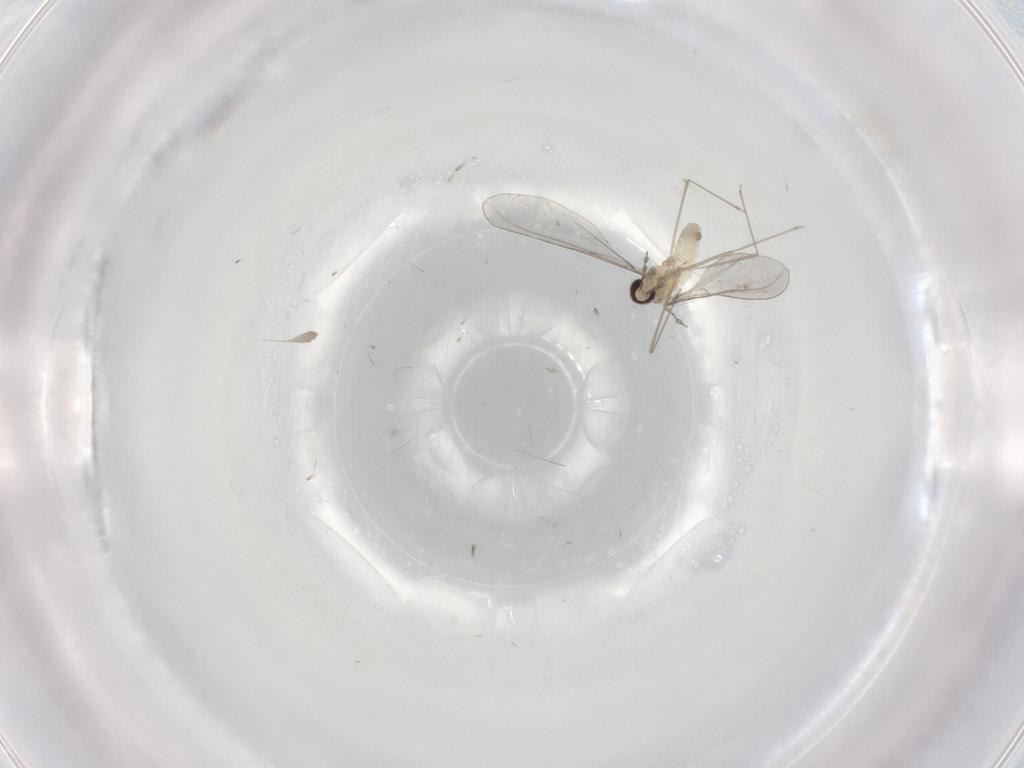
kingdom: Animalia
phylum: Arthropoda
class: Insecta
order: Diptera
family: Cecidomyiidae
